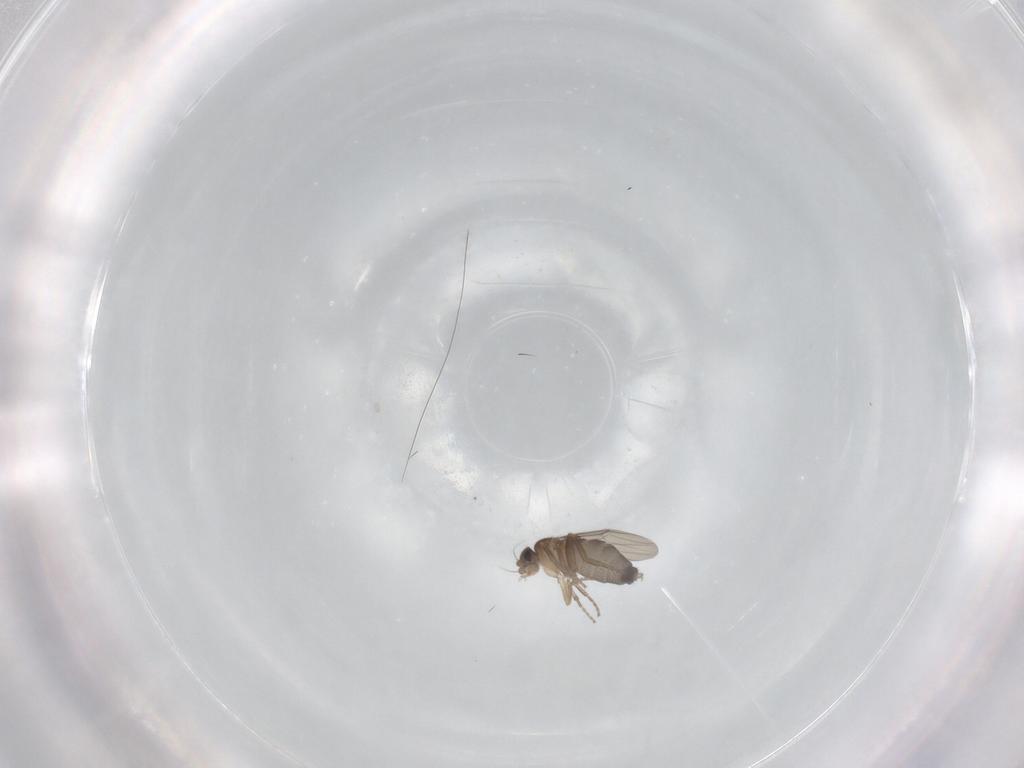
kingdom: Animalia
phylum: Arthropoda
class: Insecta
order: Diptera
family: Phoridae
